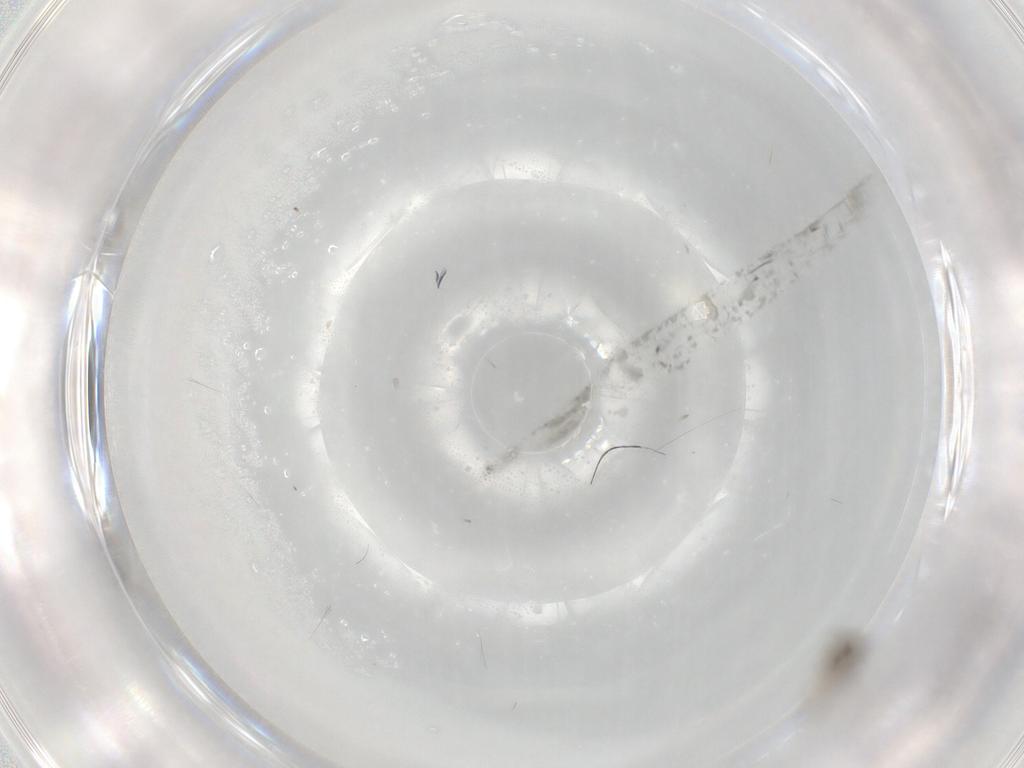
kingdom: Animalia
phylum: Arthropoda
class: Insecta
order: Diptera
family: Chironomidae
